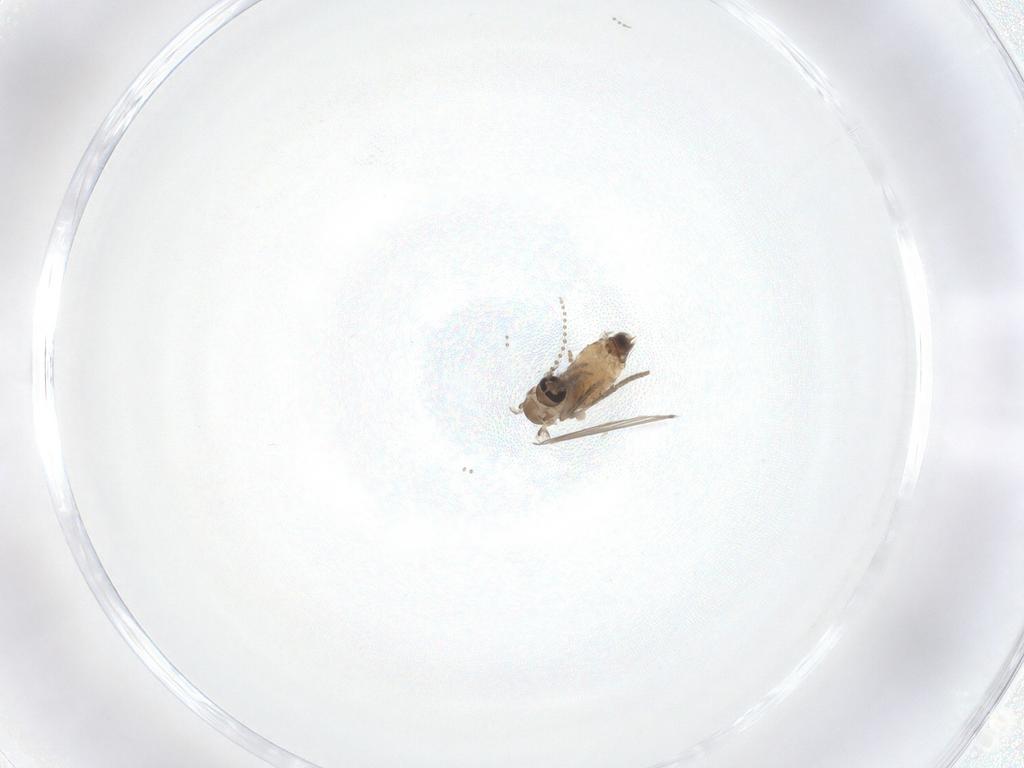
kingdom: Animalia
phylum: Arthropoda
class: Insecta
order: Diptera
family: Psychodidae
